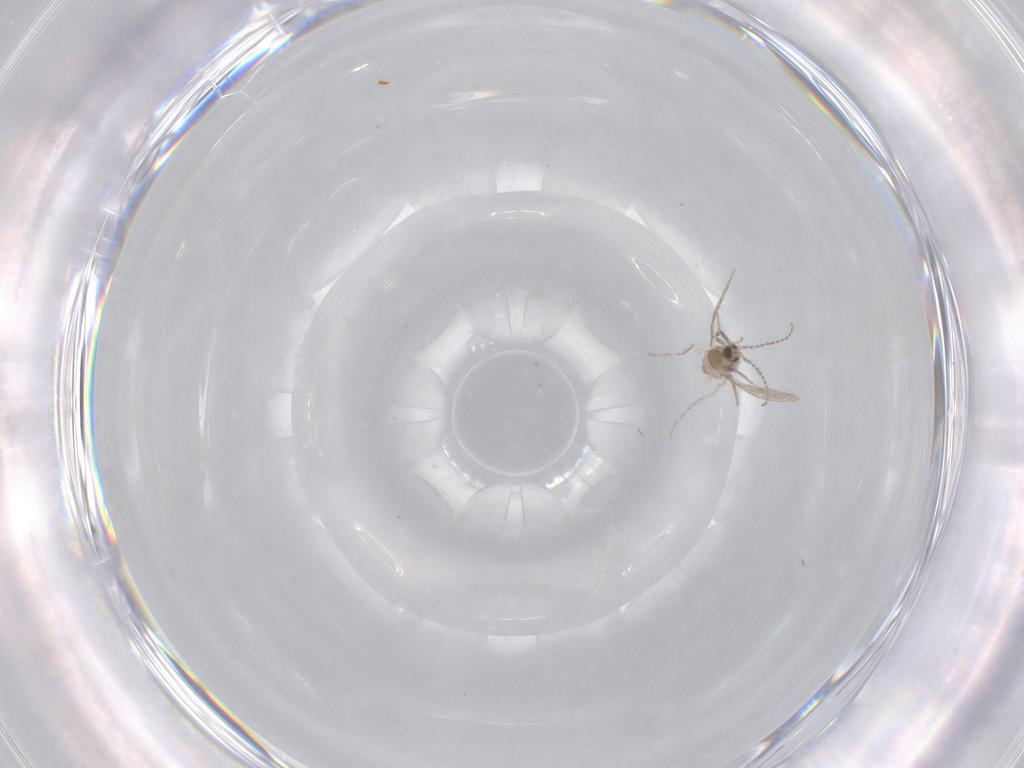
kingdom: Animalia
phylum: Arthropoda
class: Insecta
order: Diptera
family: Cecidomyiidae
